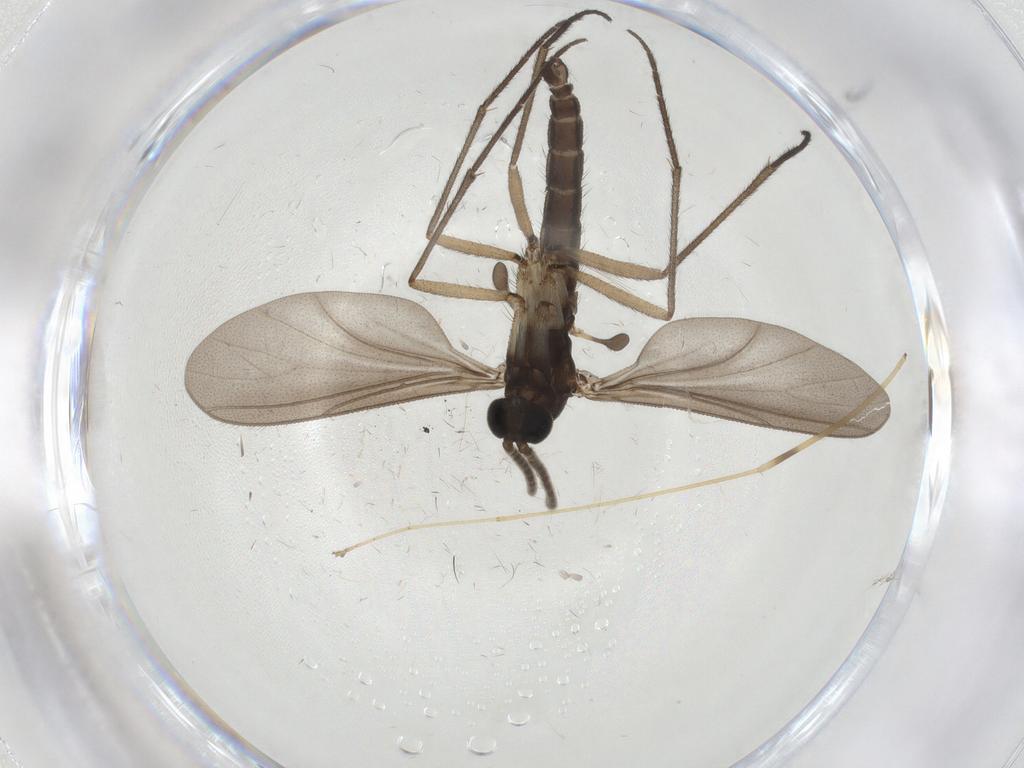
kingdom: Animalia
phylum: Arthropoda
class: Insecta
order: Diptera
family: Sciaridae
